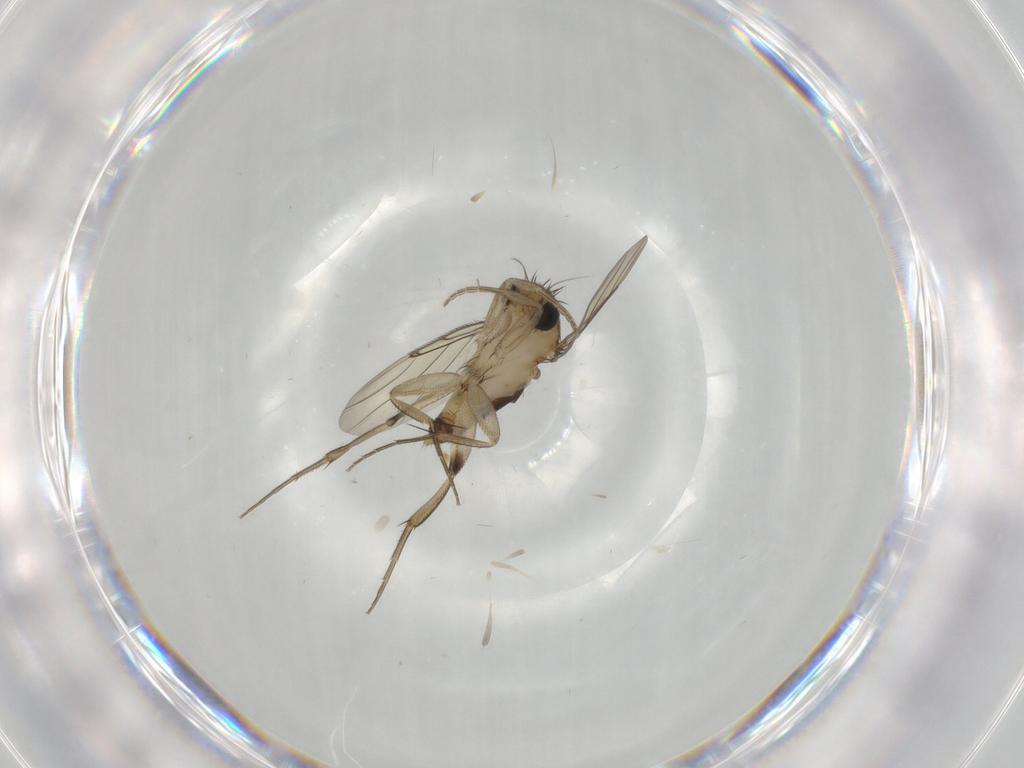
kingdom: Animalia
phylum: Arthropoda
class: Insecta
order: Diptera
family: Phoridae
